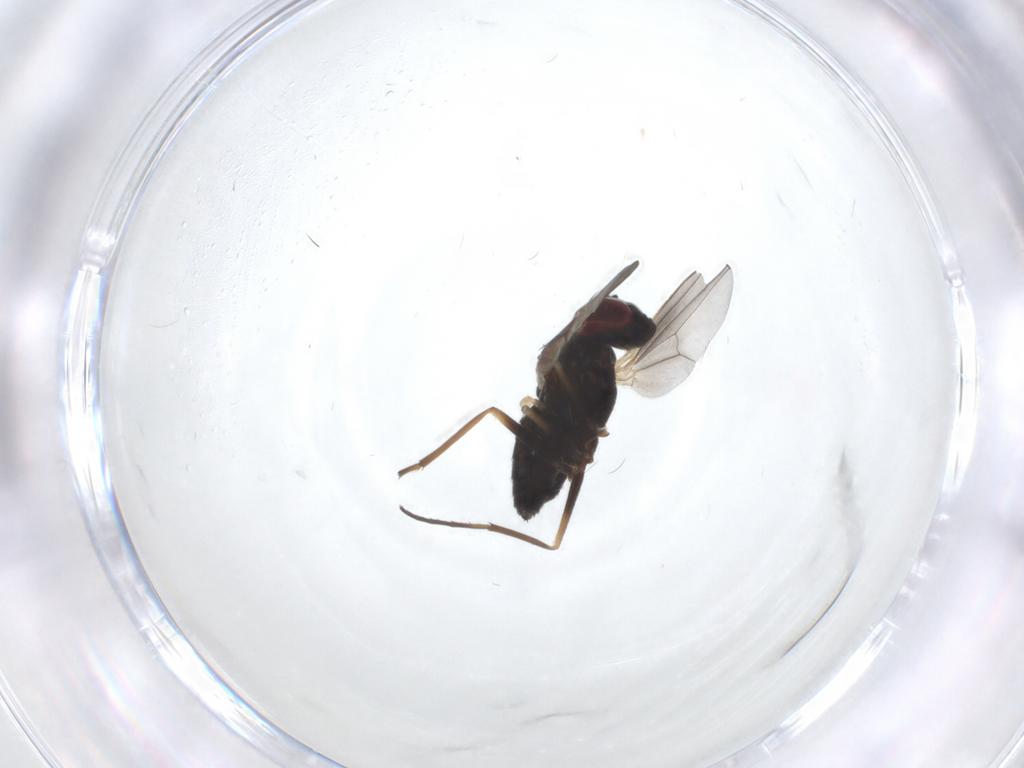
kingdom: Animalia
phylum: Arthropoda
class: Insecta
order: Diptera
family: Dolichopodidae
